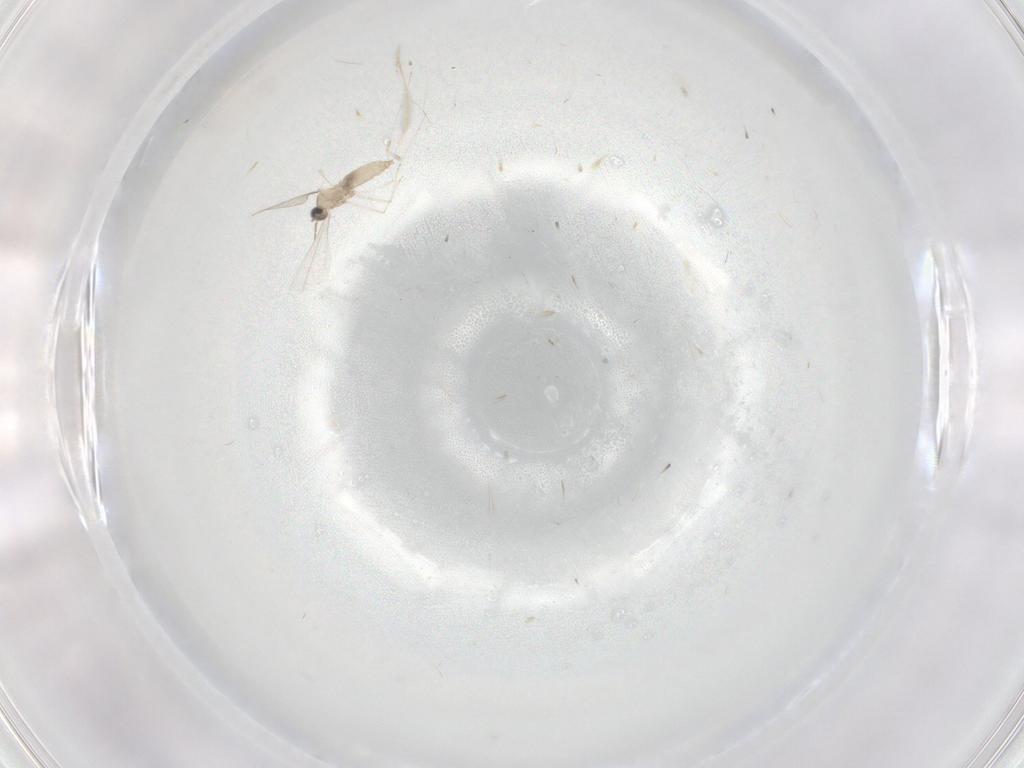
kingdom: Animalia
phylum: Arthropoda
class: Insecta
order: Diptera
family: Cecidomyiidae
